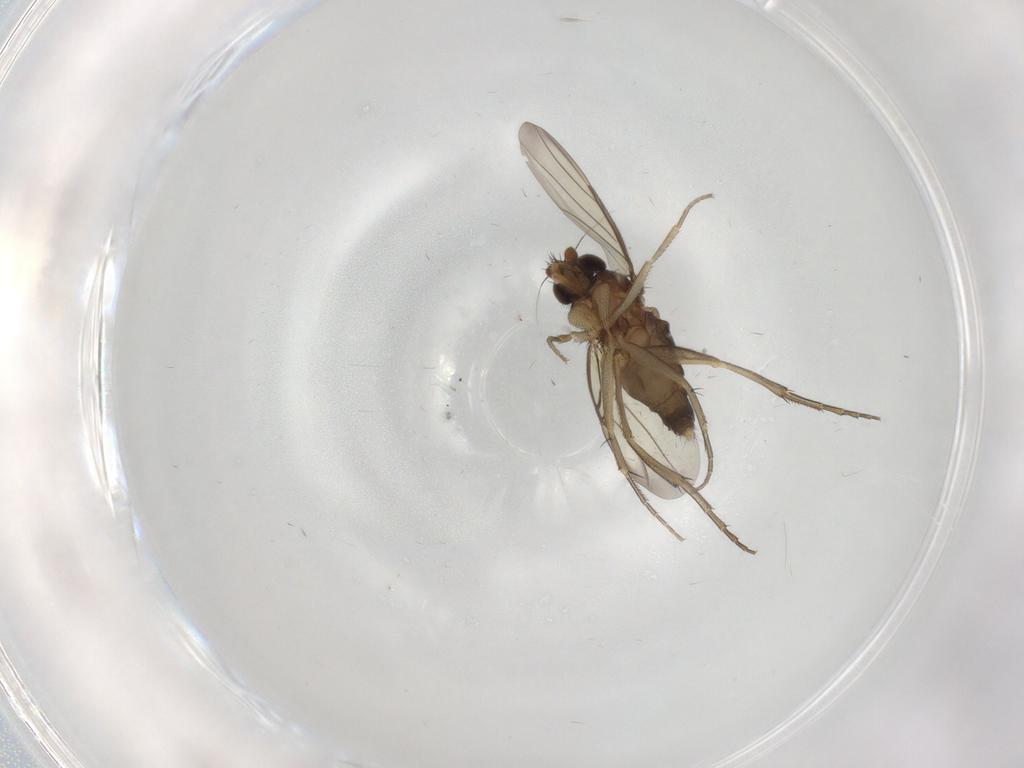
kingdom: Animalia
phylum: Arthropoda
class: Insecta
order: Diptera
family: Phoridae
